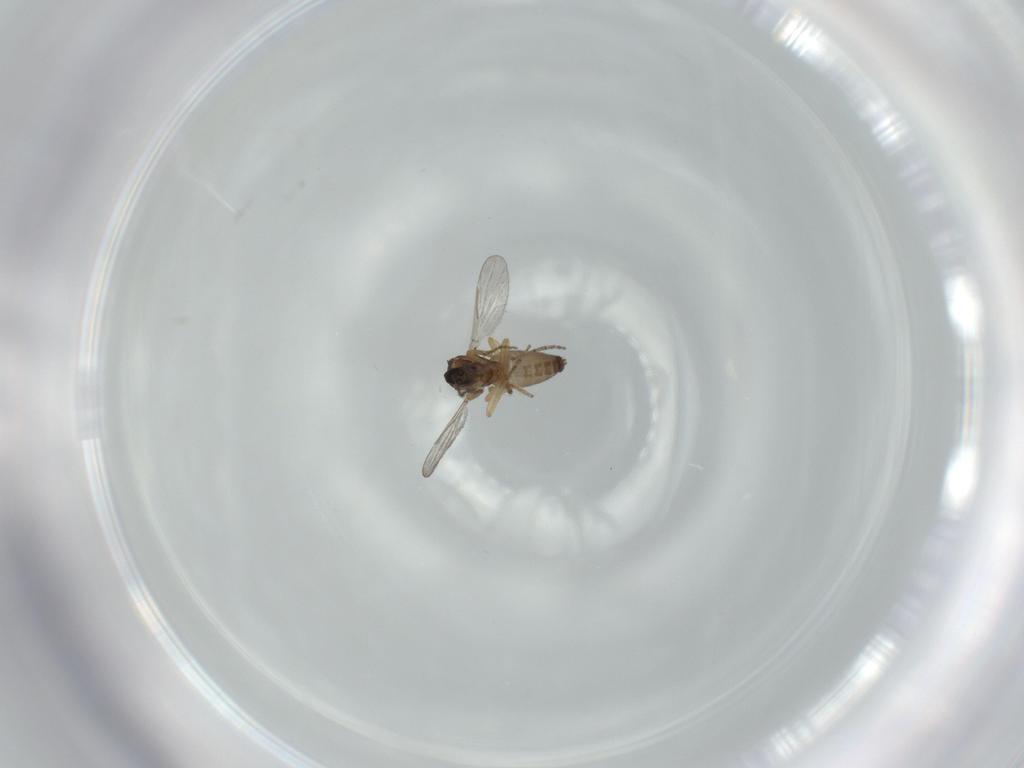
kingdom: Animalia
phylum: Arthropoda
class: Insecta
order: Diptera
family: Ceratopogonidae
